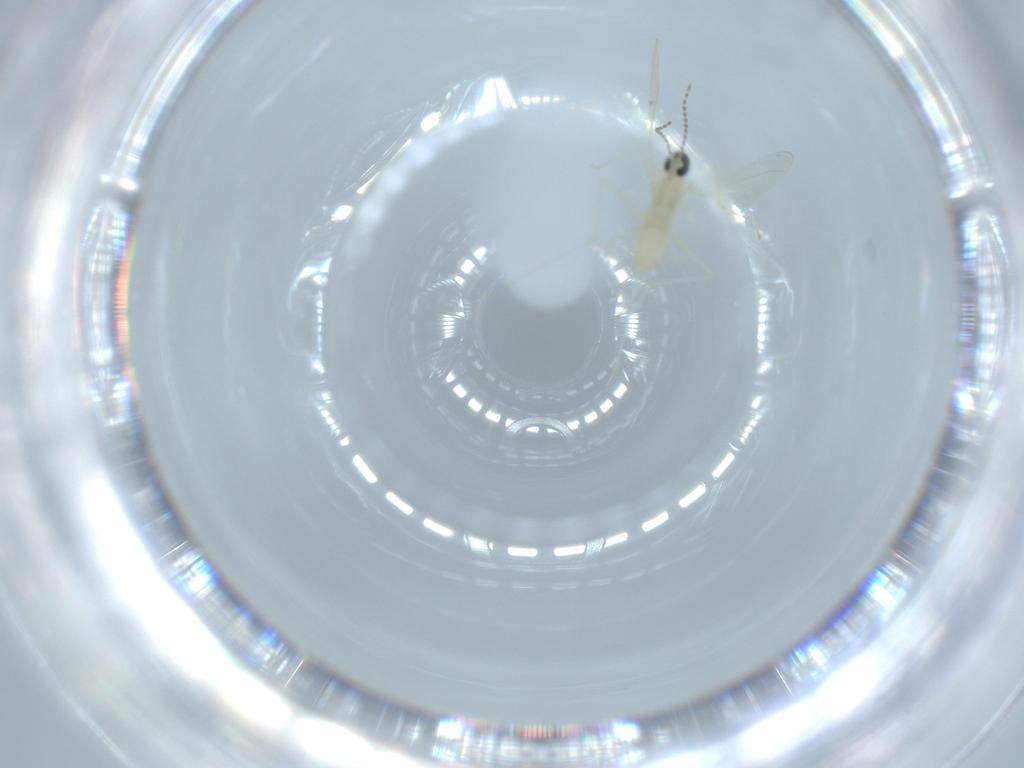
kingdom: Animalia
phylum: Arthropoda
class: Insecta
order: Diptera
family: Cecidomyiidae
